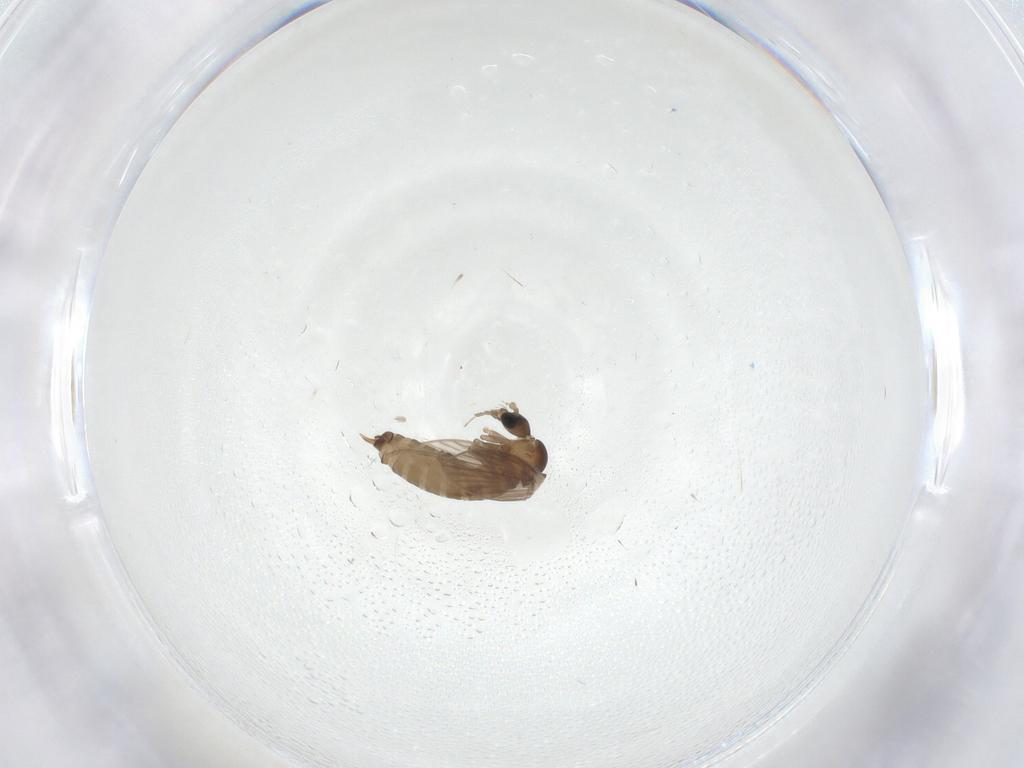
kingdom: Animalia
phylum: Arthropoda
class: Insecta
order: Diptera
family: Psychodidae
